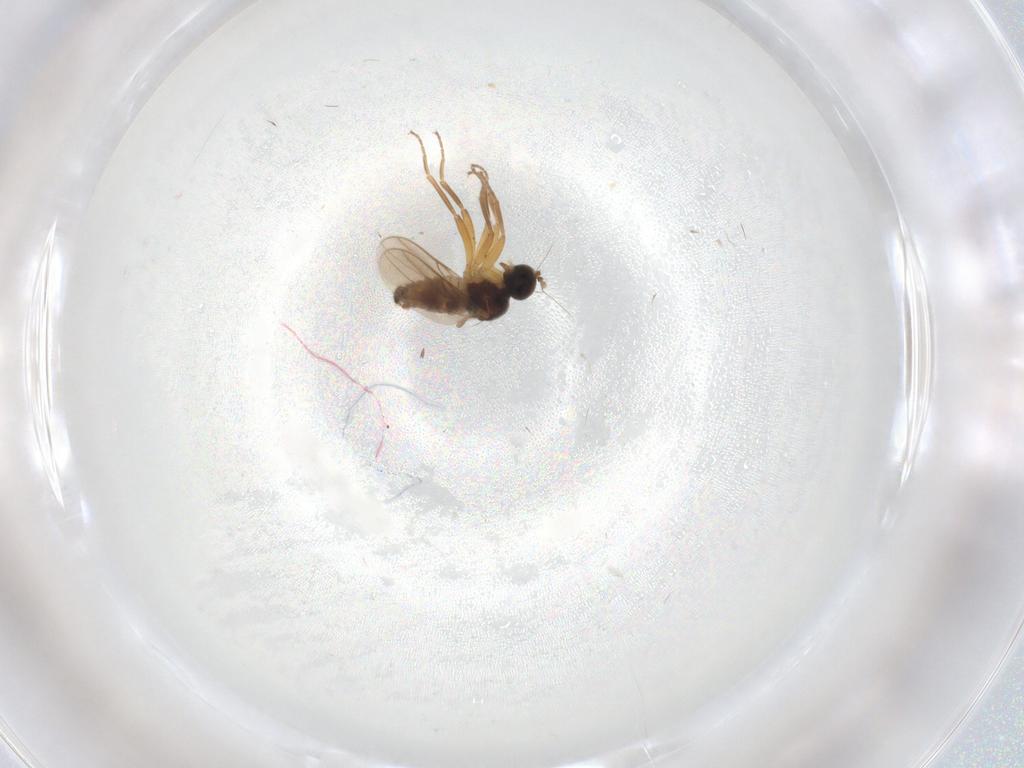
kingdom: Animalia
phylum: Arthropoda
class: Insecta
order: Diptera
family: Hybotidae
